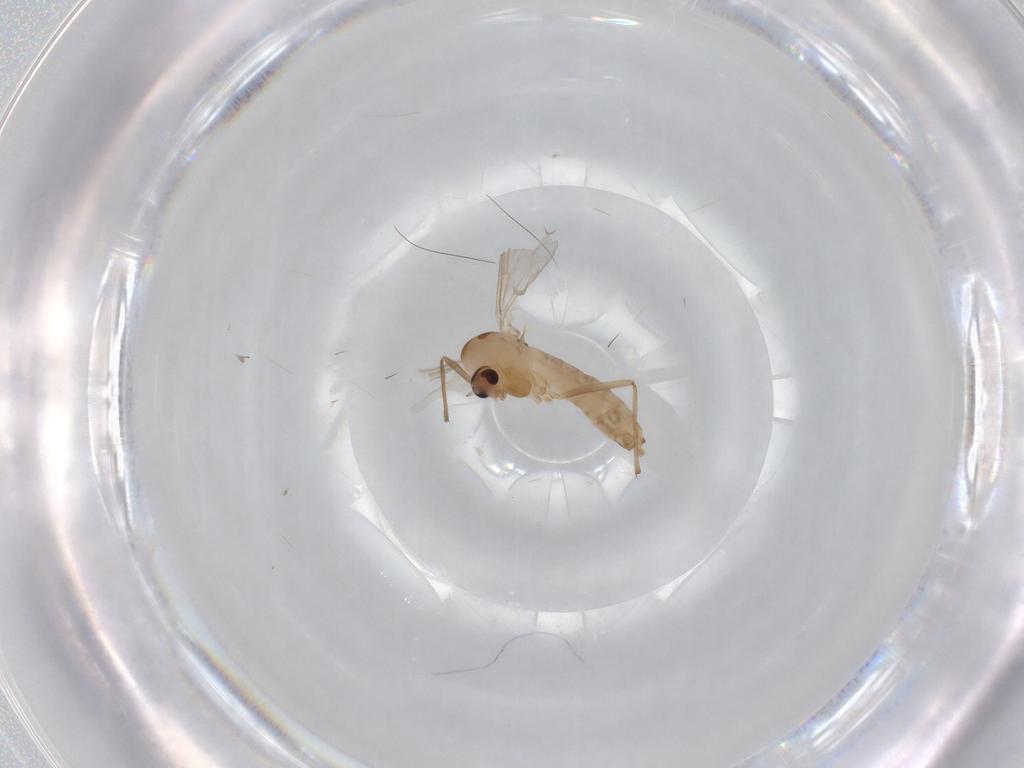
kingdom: Animalia
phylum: Arthropoda
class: Insecta
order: Diptera
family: Chironomidae
